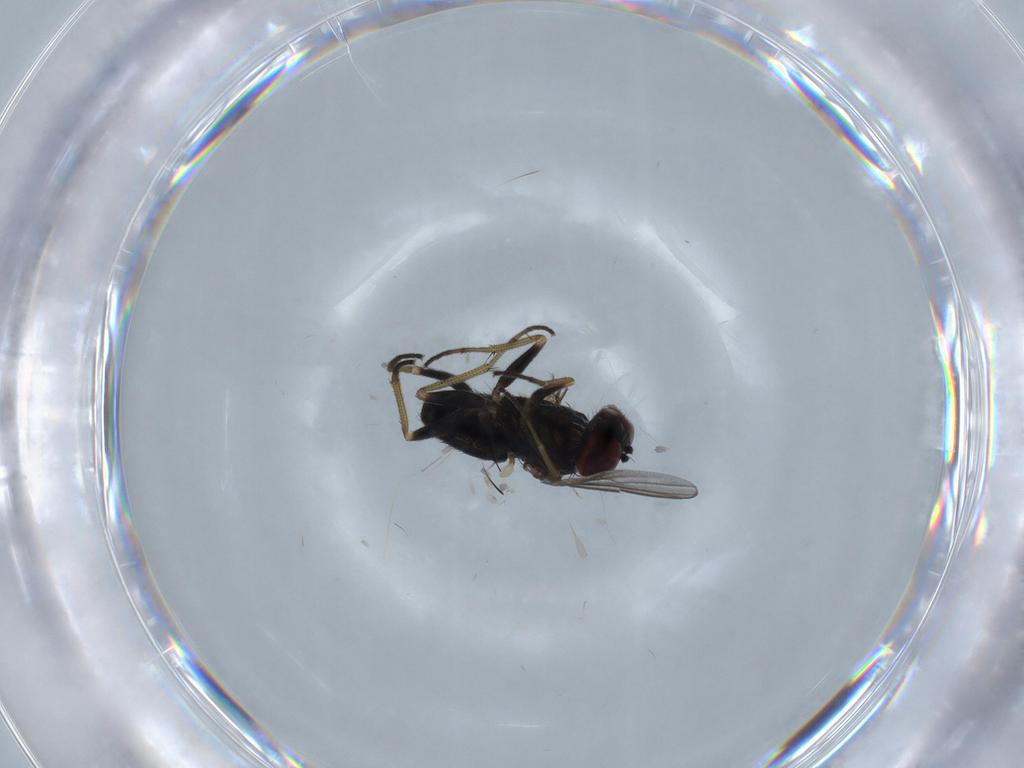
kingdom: Animalia
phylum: Arthropoda
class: Insecta
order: Diptera
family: Dolichopodidae
